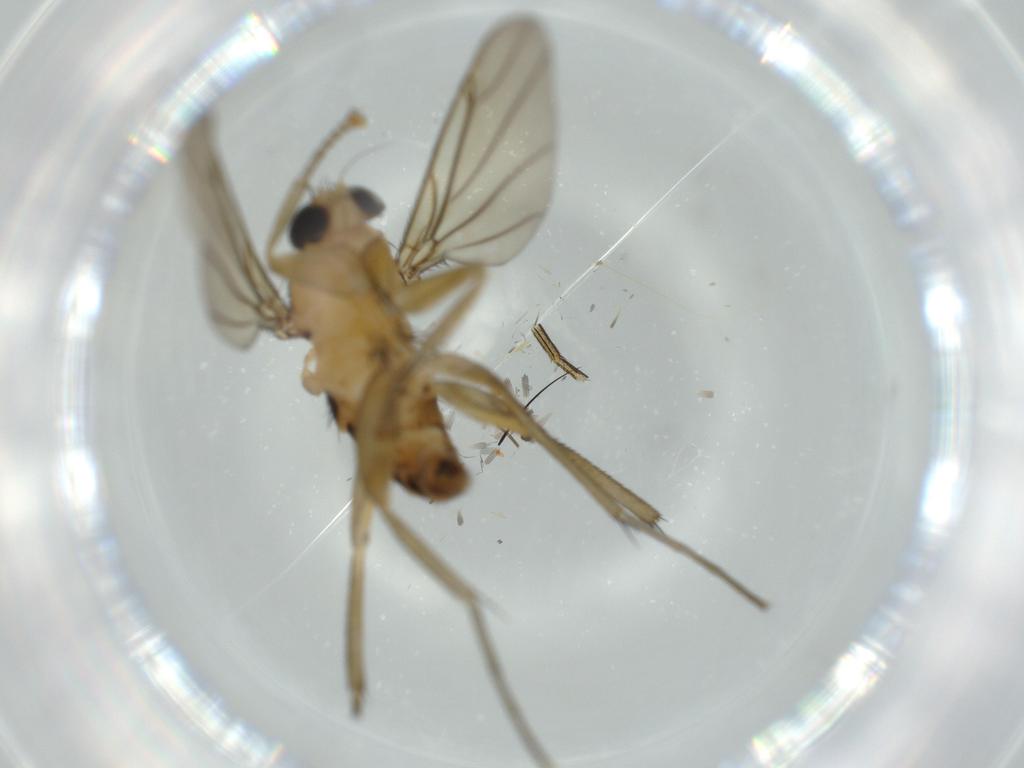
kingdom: Animalia
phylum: Arthropoda
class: Insecta
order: Diptera
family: Phoridae
